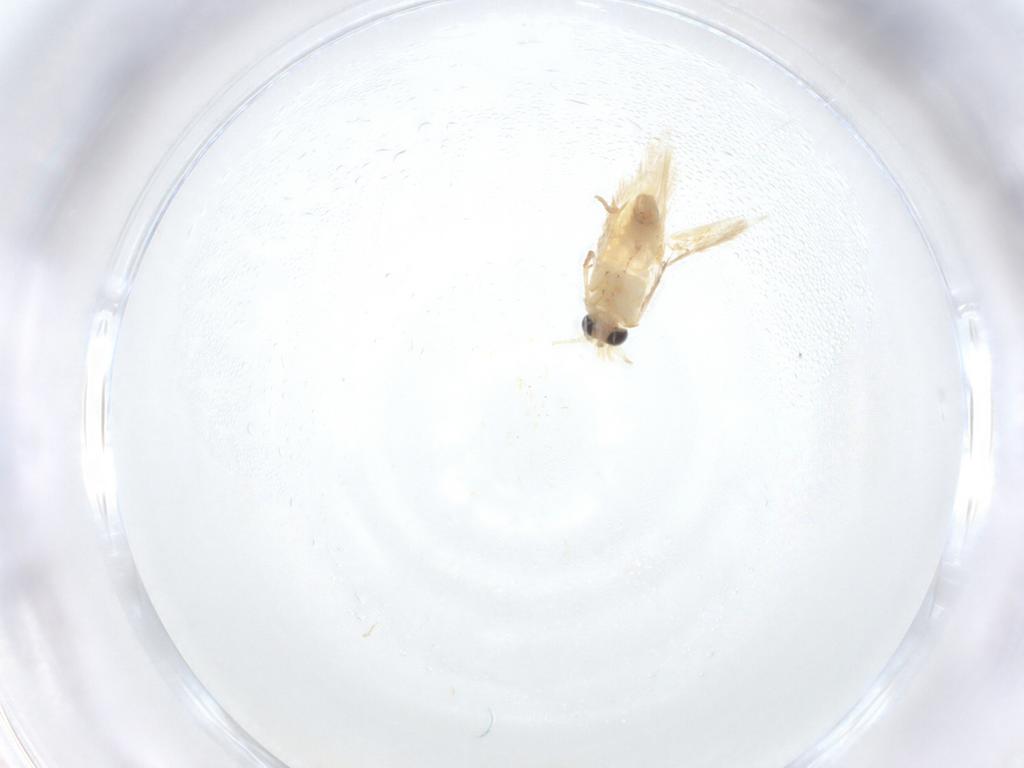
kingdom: Animalia
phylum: Arthropoda
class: Insecta
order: Lepidoptera
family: Nepticulidae
